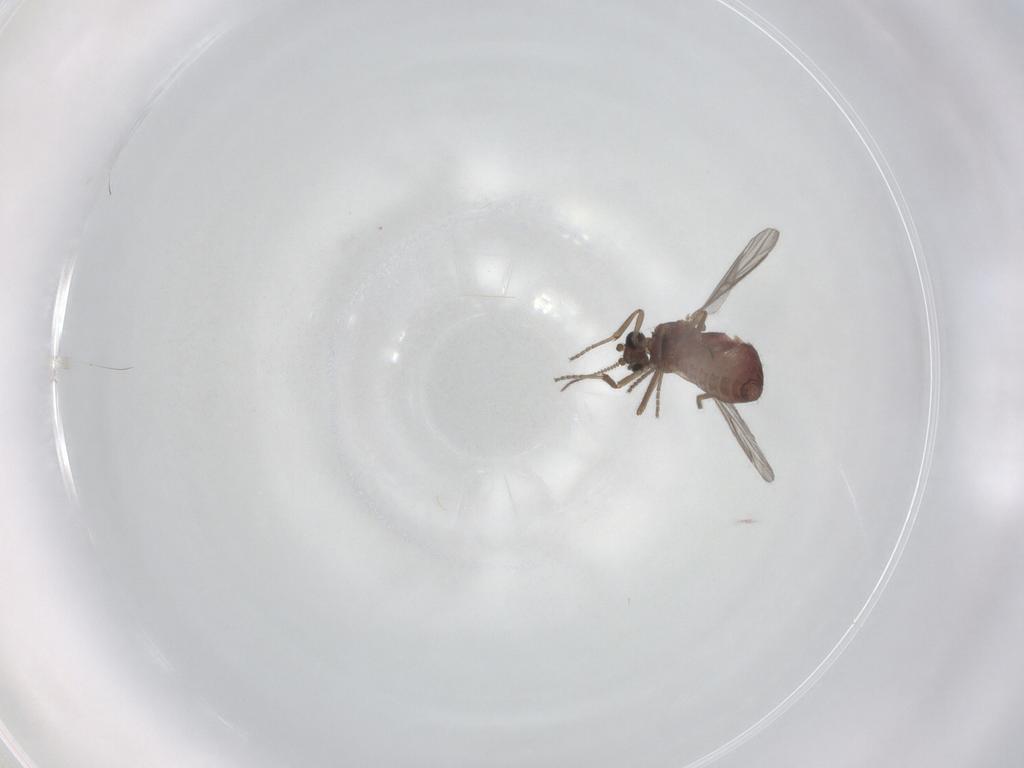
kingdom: Animalia
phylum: Arthropoda
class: Insecta
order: Diptera
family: Ceratopogonidae
